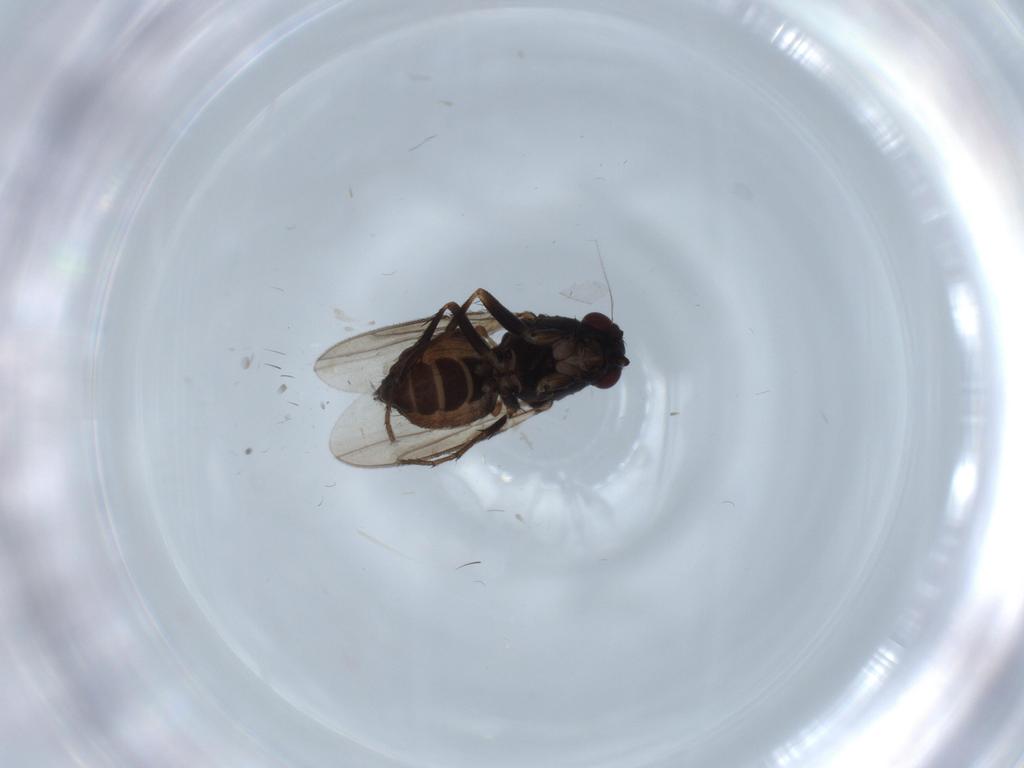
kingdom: Animalia
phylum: Arthropoda
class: Insecta
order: Diptera
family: Sphaeroceridae
